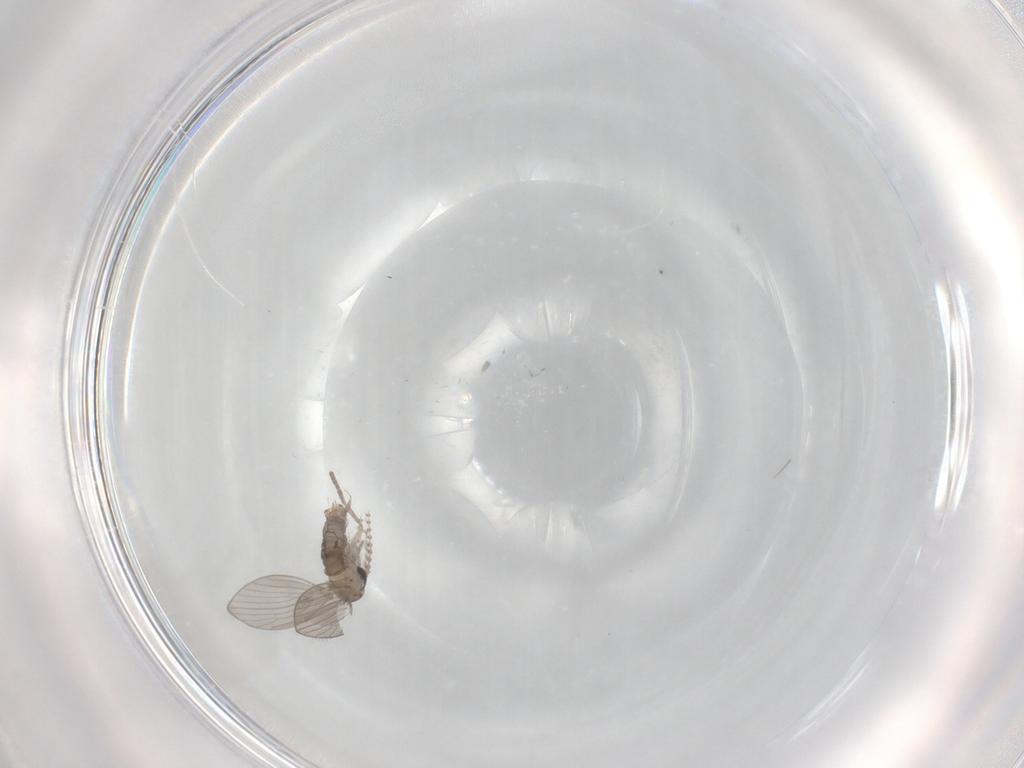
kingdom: Animalia
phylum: Arthropoda
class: Insecta
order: Diptera
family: Psychodidae
